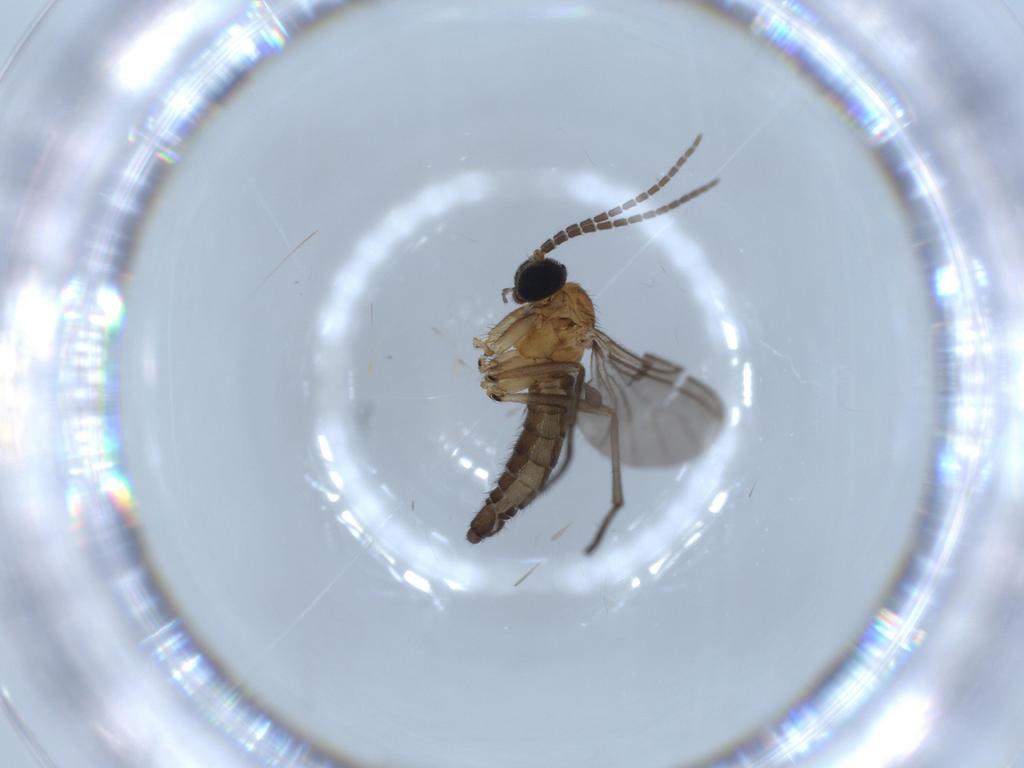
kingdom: Animalia
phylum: Arthropoda
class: Insecta
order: Diptera
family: Sciaridae
